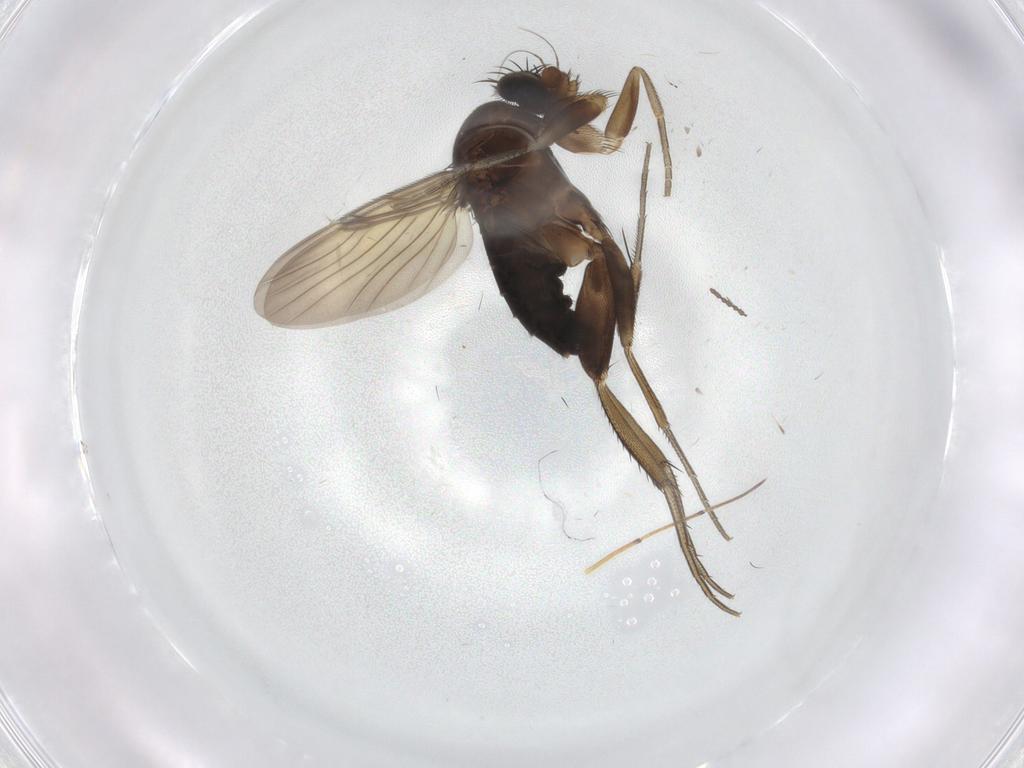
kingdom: Animalia
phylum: Arthropoda
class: Insecta
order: Diptera
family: Phoridae
